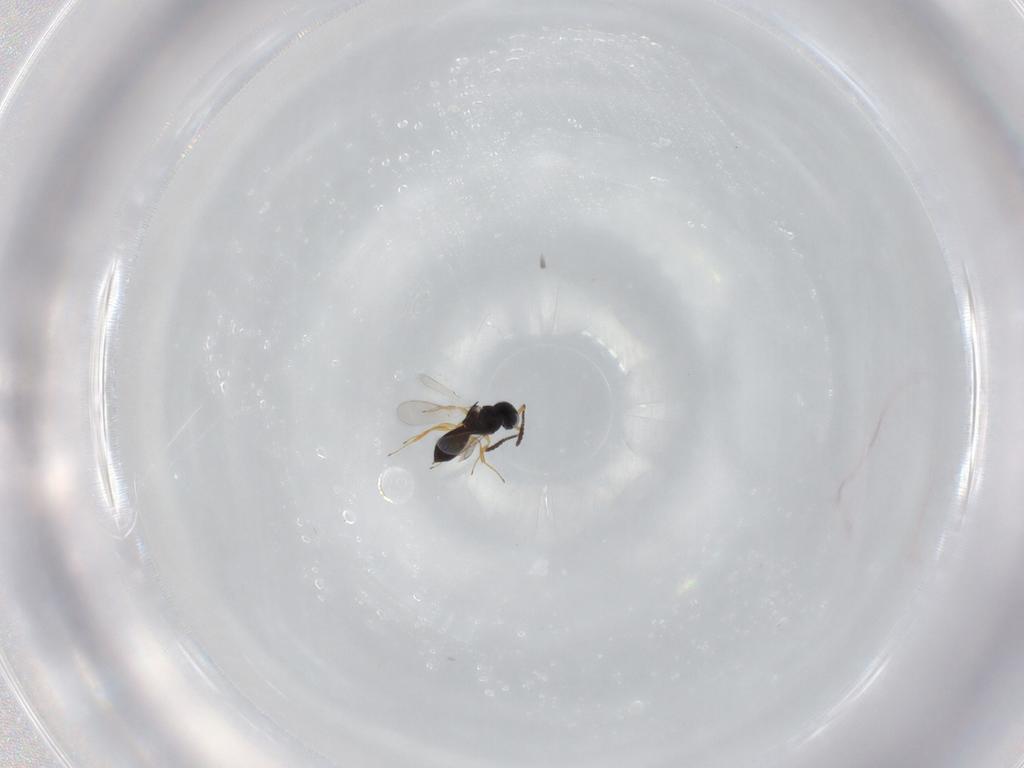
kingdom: Animalia
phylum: Arthropoda
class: Insecta
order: Hymenoptera
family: Scelionidae
